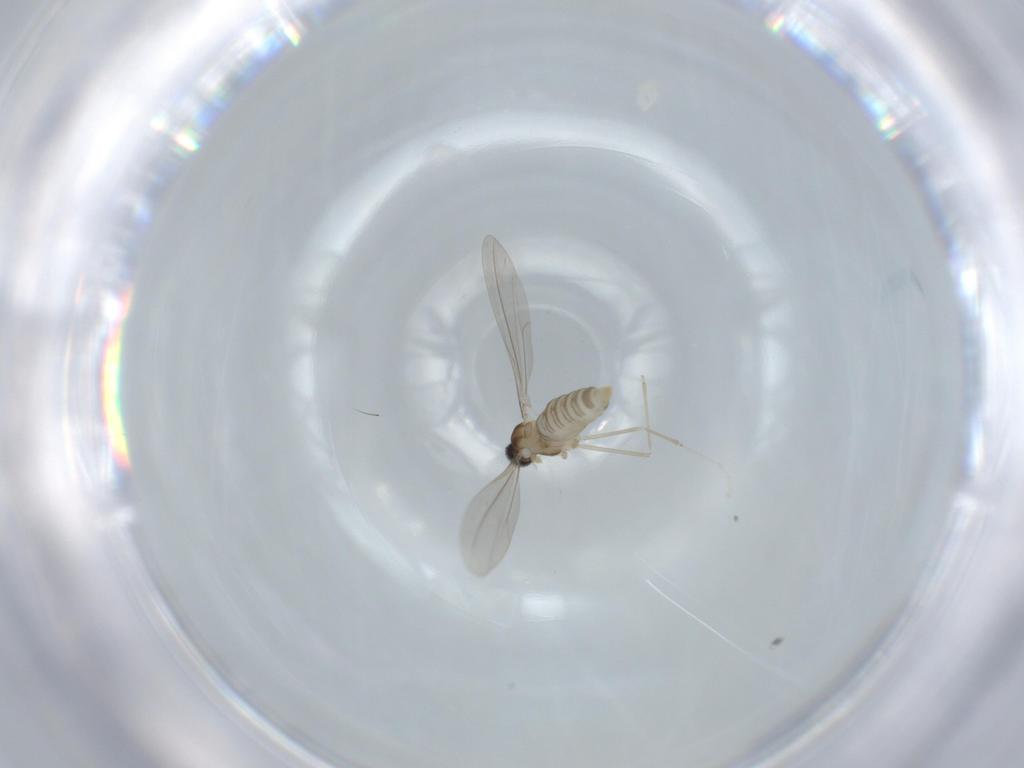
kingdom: Animalia
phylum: Arthropoda
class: Insecta
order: Diptera
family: Cecidomyiidae
